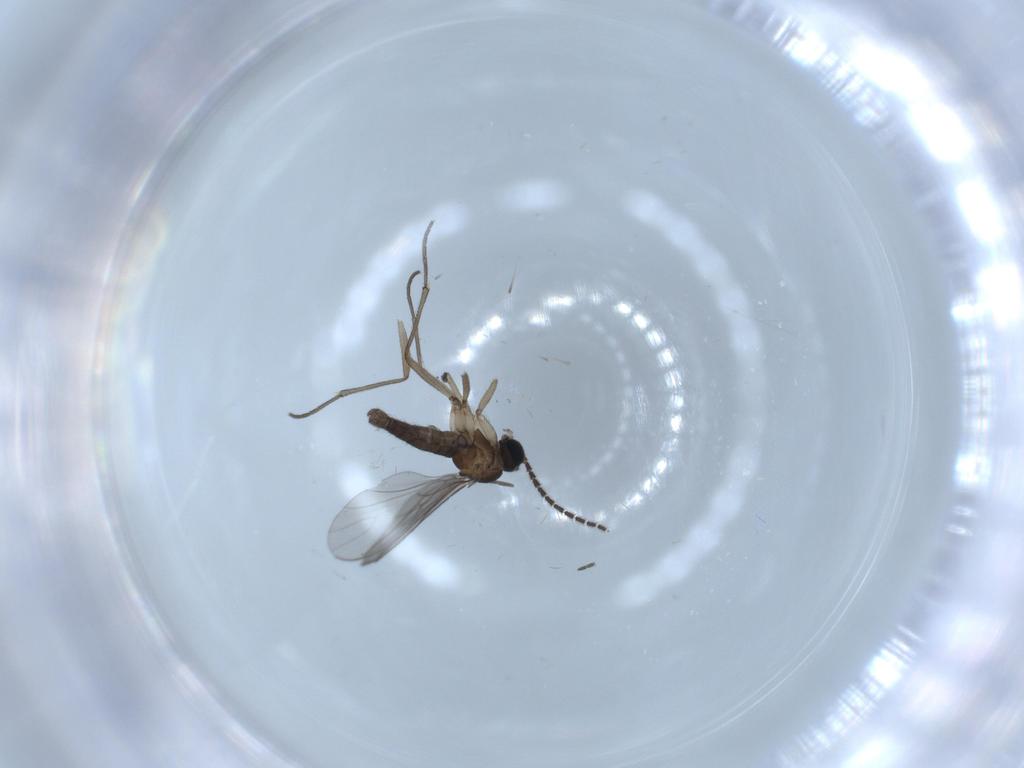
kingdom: Animalia
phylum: Arthropoda
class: Insecta
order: Diptera
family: Sciaridae
